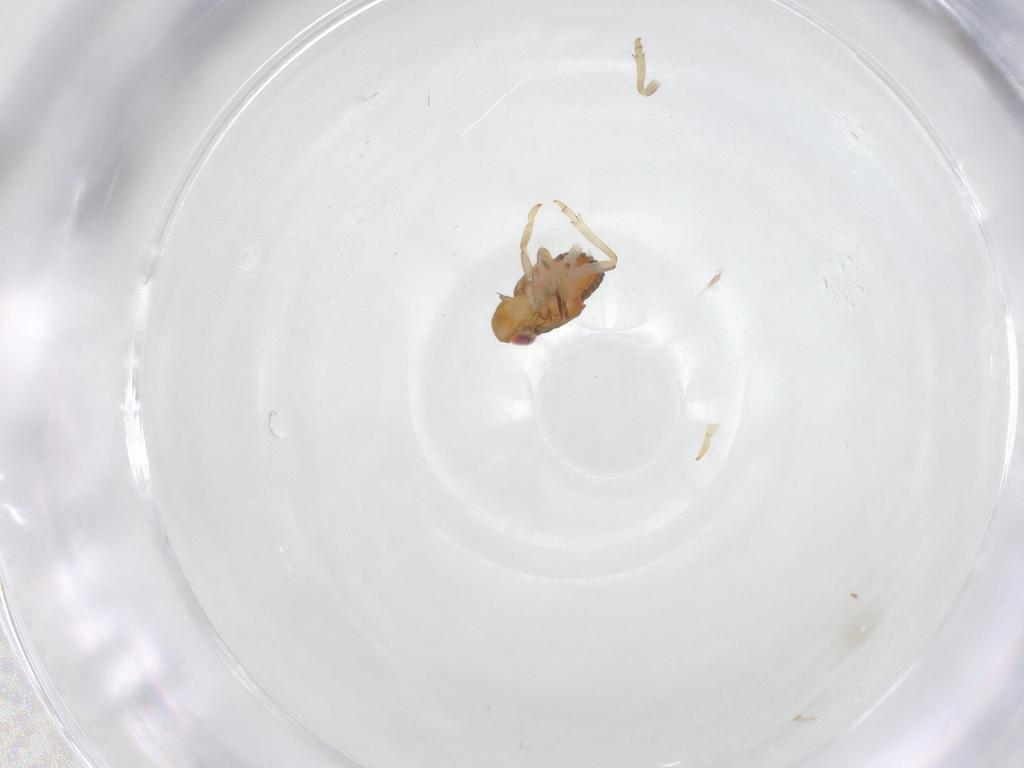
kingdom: Animalia
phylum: Arthropoda
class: Insecta
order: Hemiptera
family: Issidae
